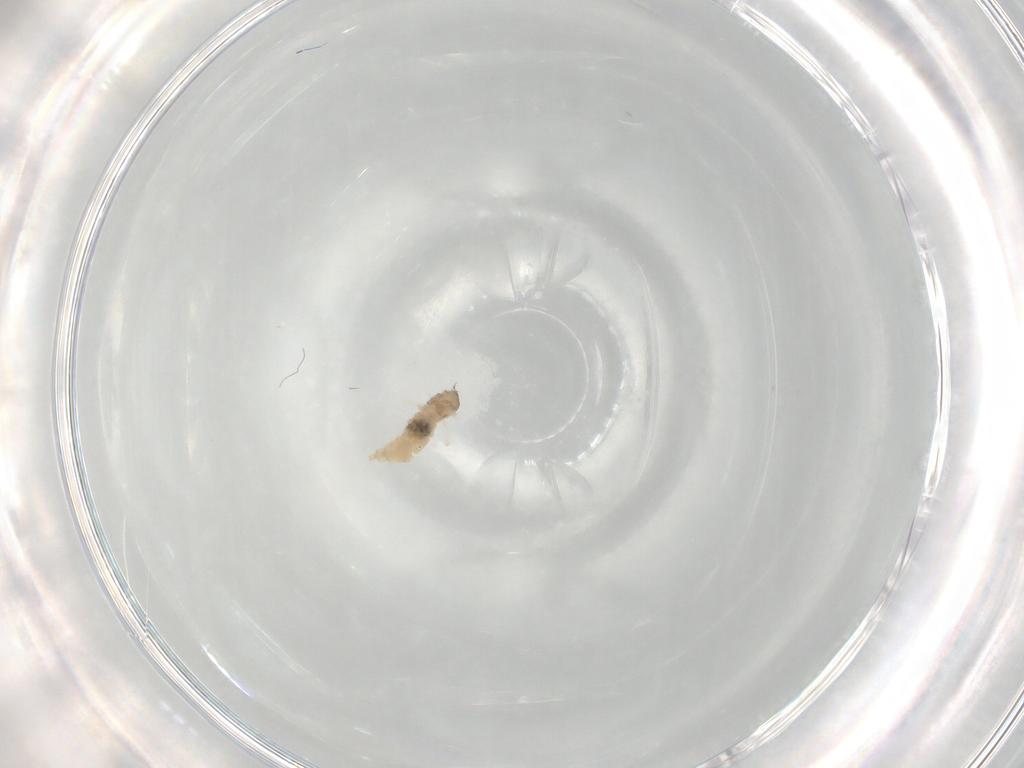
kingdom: Animalia
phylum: Arthropoda
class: Insecta
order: Diptera
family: Cecidomyiidae
